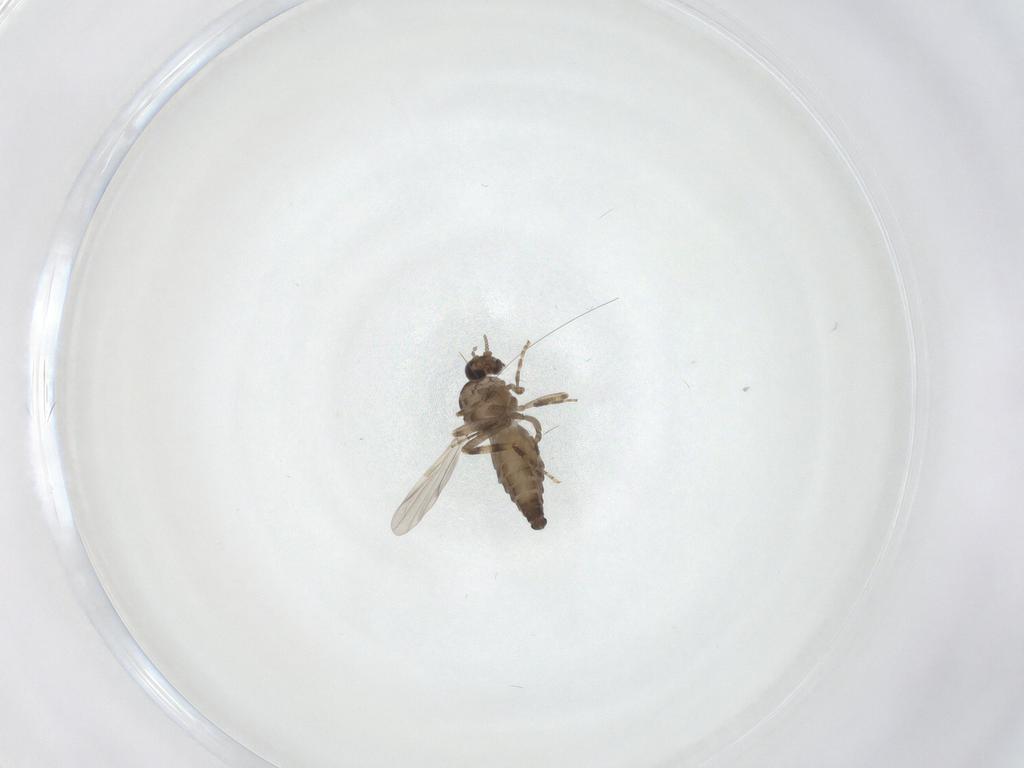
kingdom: Animalia
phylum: Arthropoda
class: Insecta
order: Diptera
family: Ceratopogonidae
